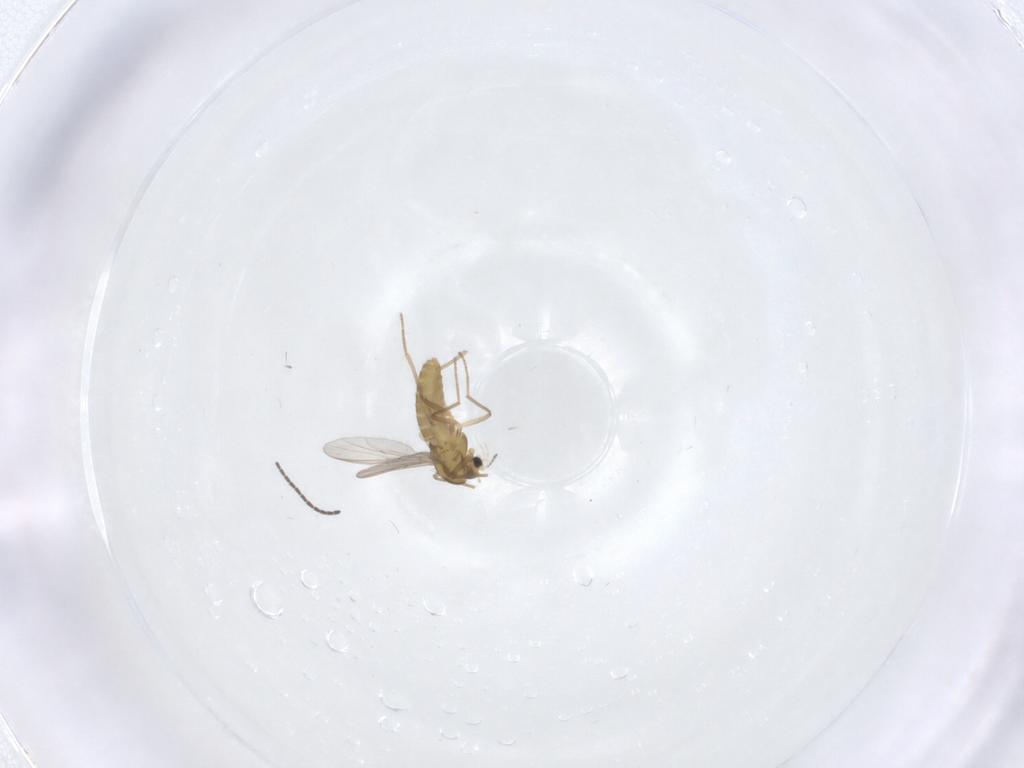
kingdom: Animalia
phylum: Arthropoda
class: Insecta
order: Diptera
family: Sciaridae
